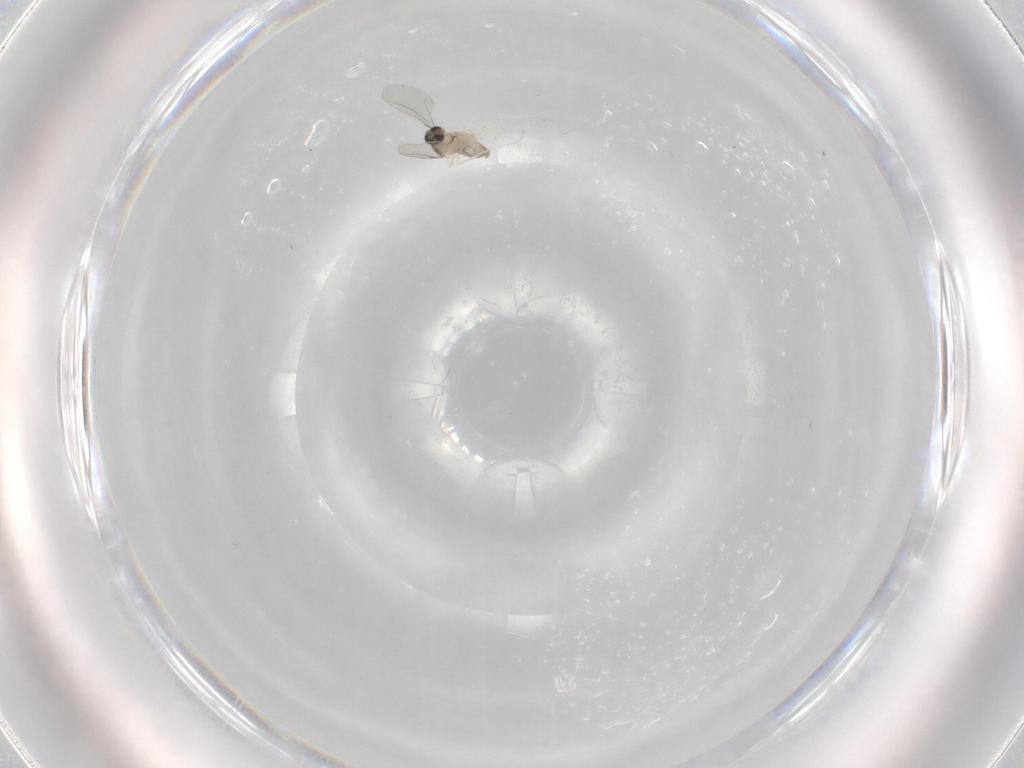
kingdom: Animalia
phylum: Arthropoda
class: Insecta
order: Diptera
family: Cecidomyiidae
